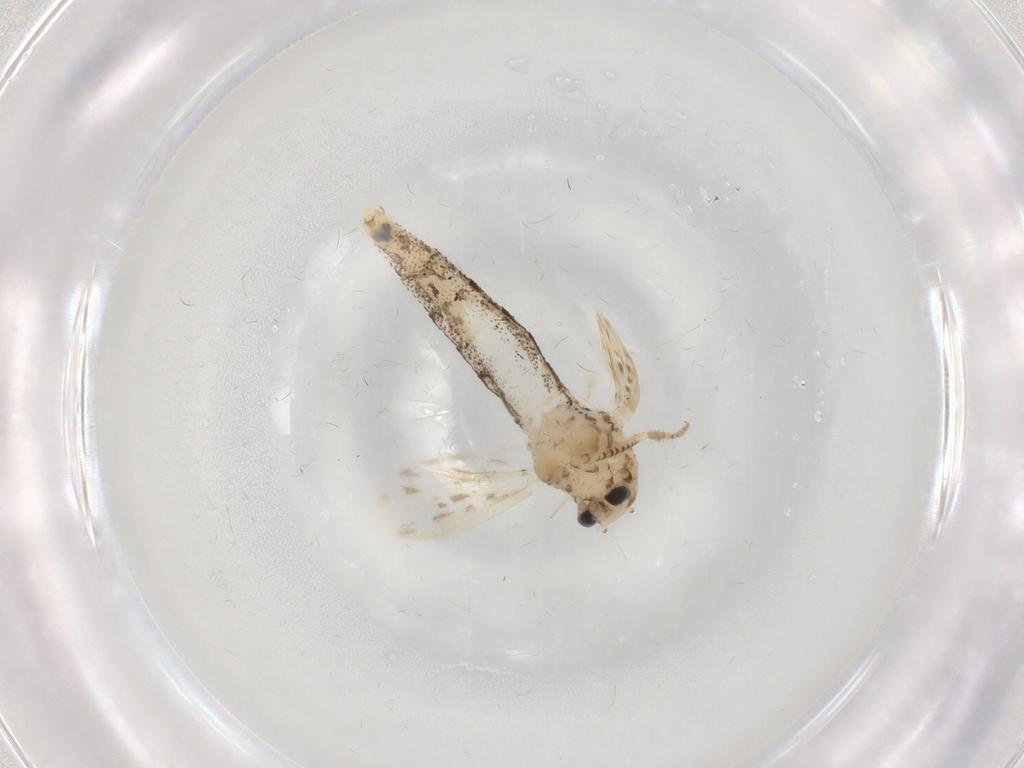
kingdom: Animalia
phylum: Arthropoda
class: Insecta
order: Diptera
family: Chaoboridae
